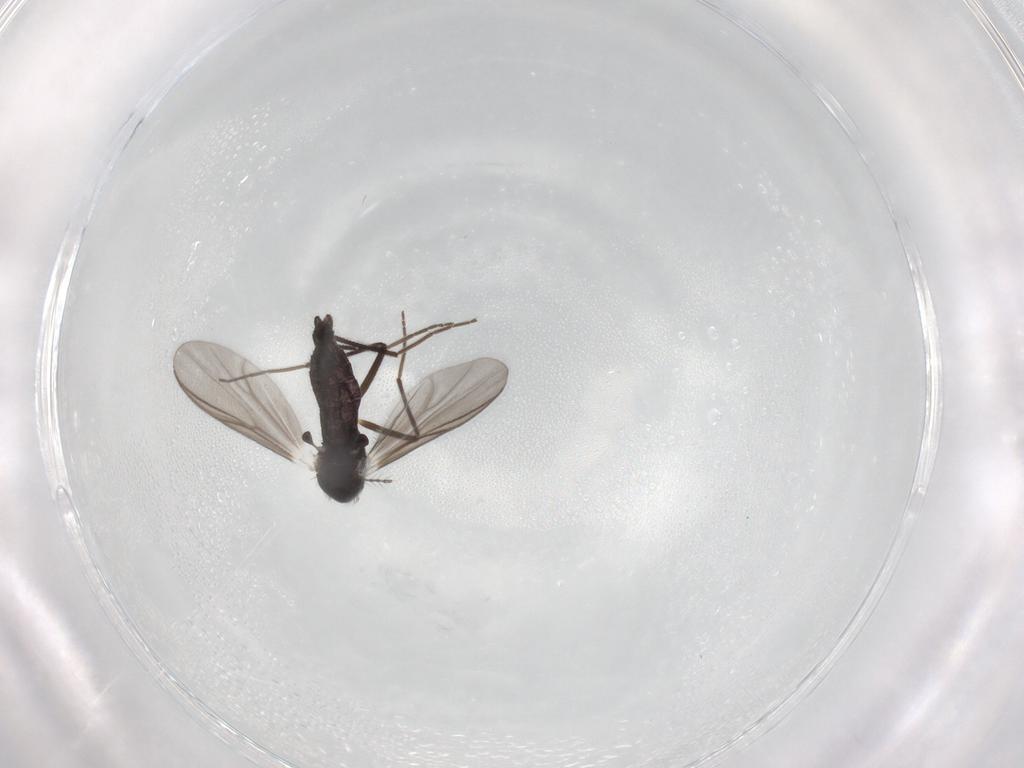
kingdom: Animalia
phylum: Arthropoda
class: Insecta
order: Diptera
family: Chironomidae
